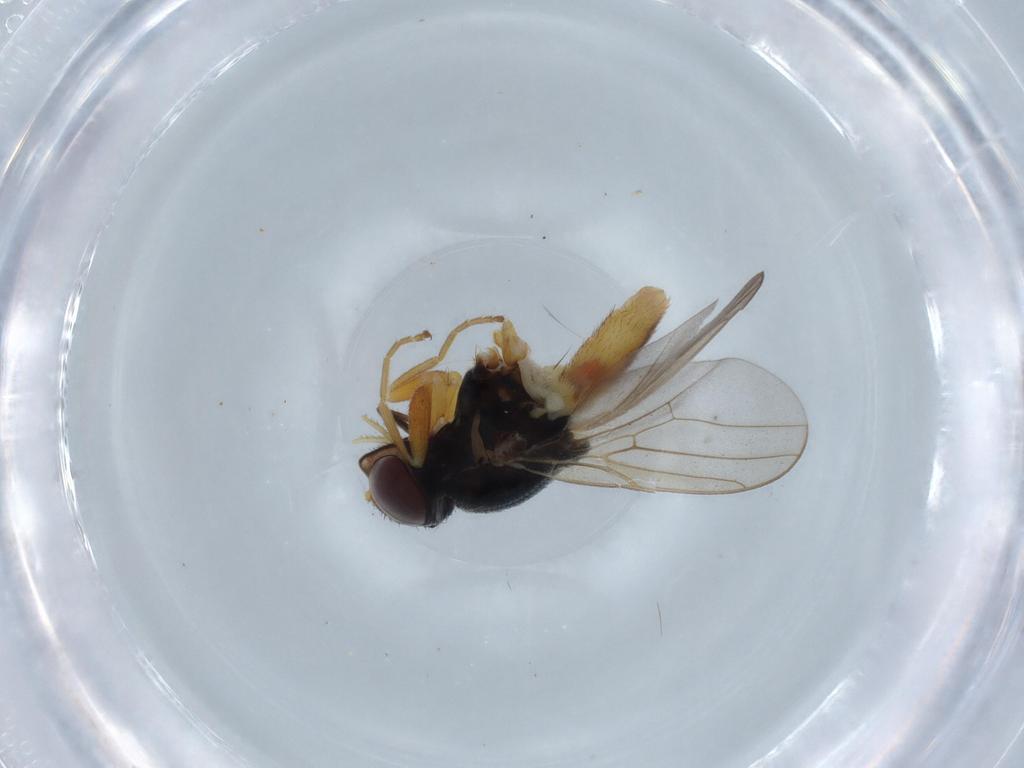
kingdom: Animalia
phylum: Arthropoda
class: Insecta
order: Diptera
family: Chloropidae
